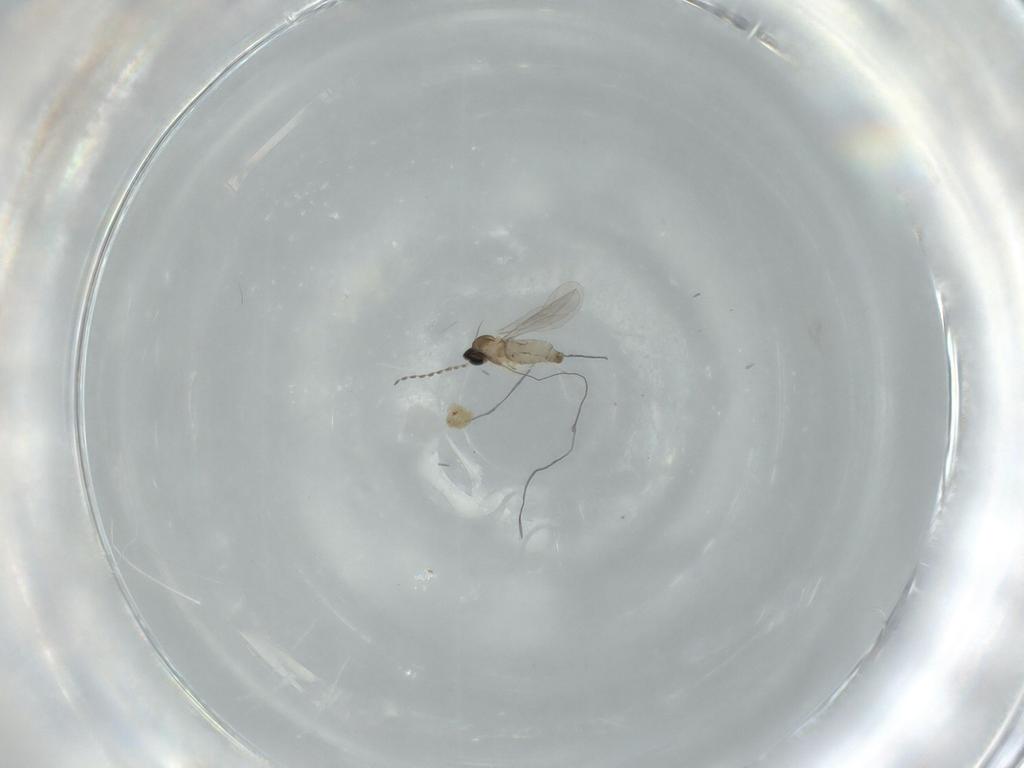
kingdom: Animalia
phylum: Arthropoda
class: Insecta
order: Diptera
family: Cecidomyiidae
